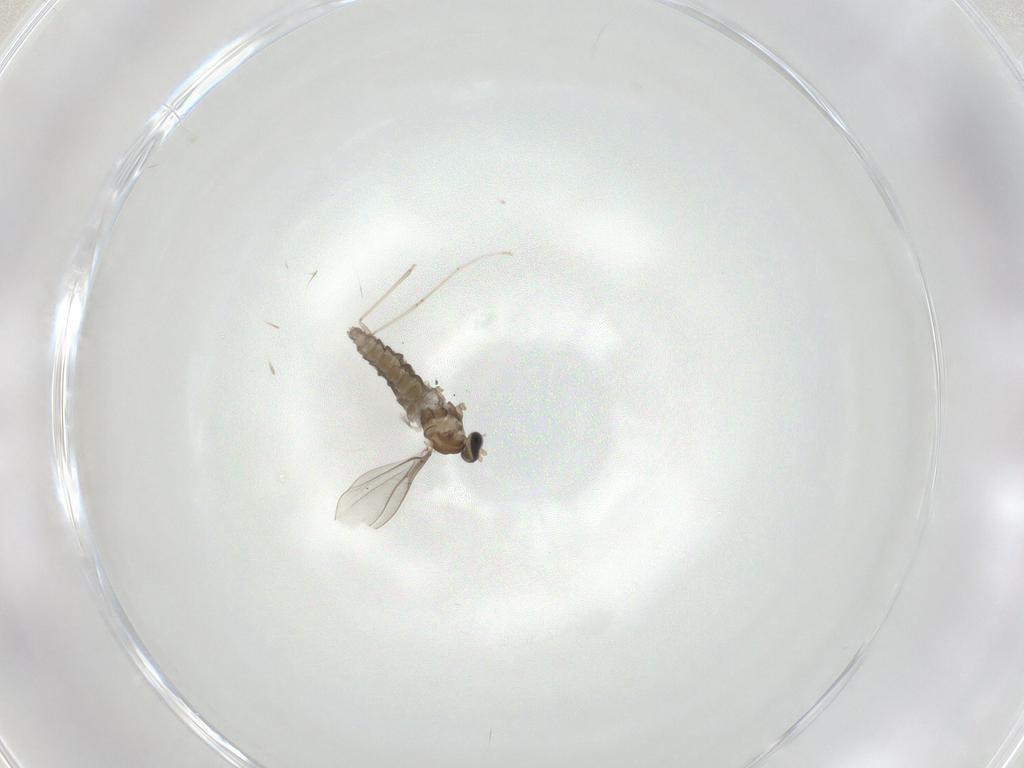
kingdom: Animalia
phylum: Arthropoda
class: Insecta
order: Diptera
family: Cecidomyiidae
